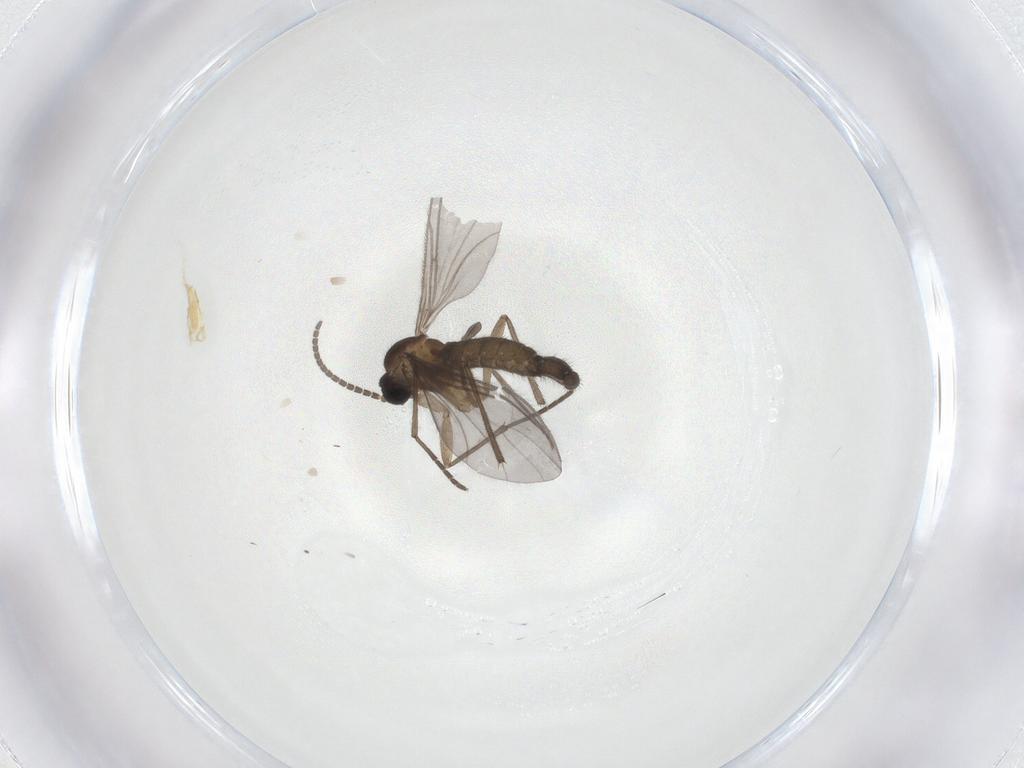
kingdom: Animalia
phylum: Arthropoda
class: Insecta
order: Diptera
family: Sciaridae
